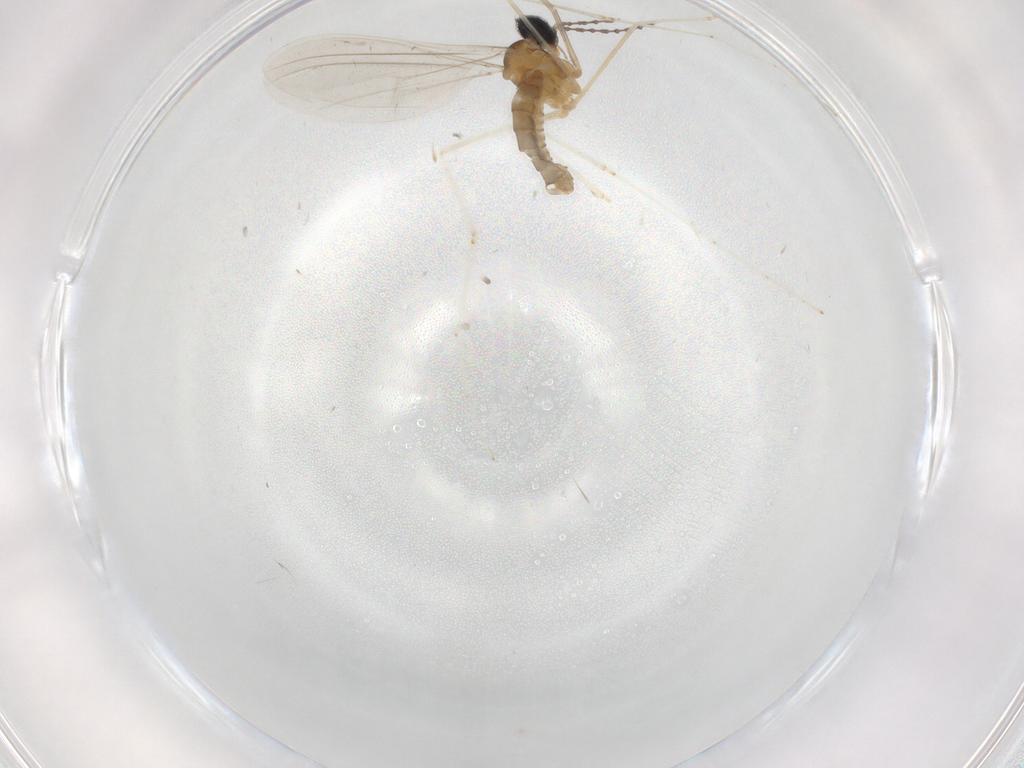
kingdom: Animalia
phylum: Arthropoda
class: Insecta
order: Diptera
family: Cecidomyiidae
